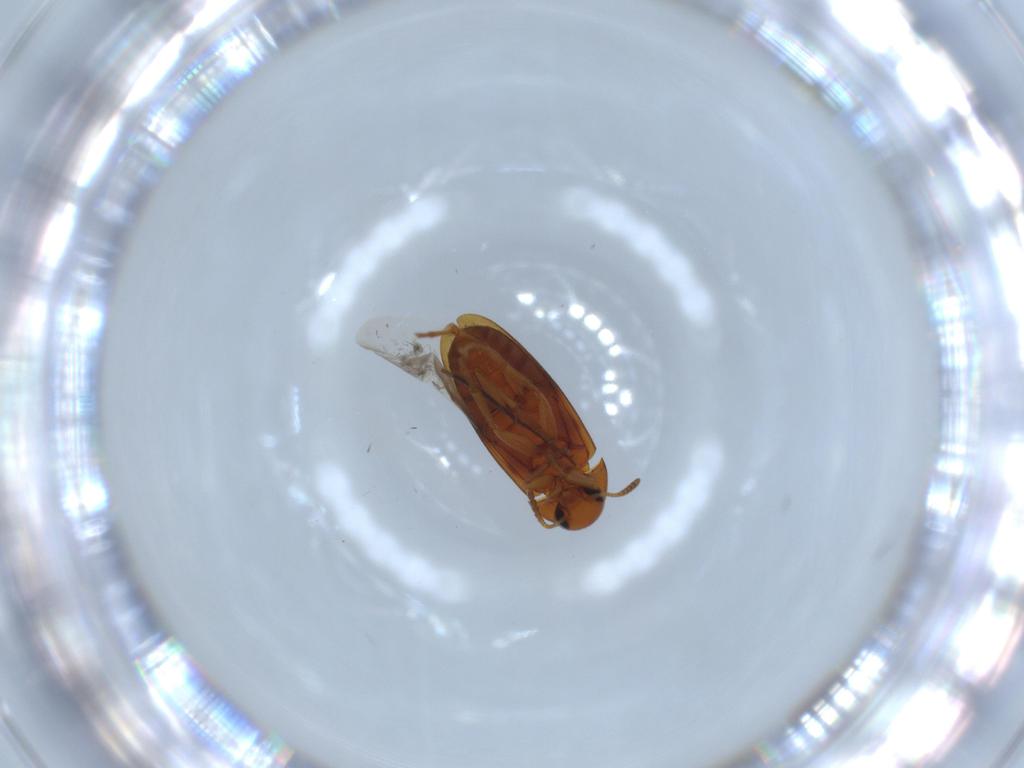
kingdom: Animalia
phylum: Arthropoda
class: Insecta
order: Coleoptera
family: Scraptiidae
